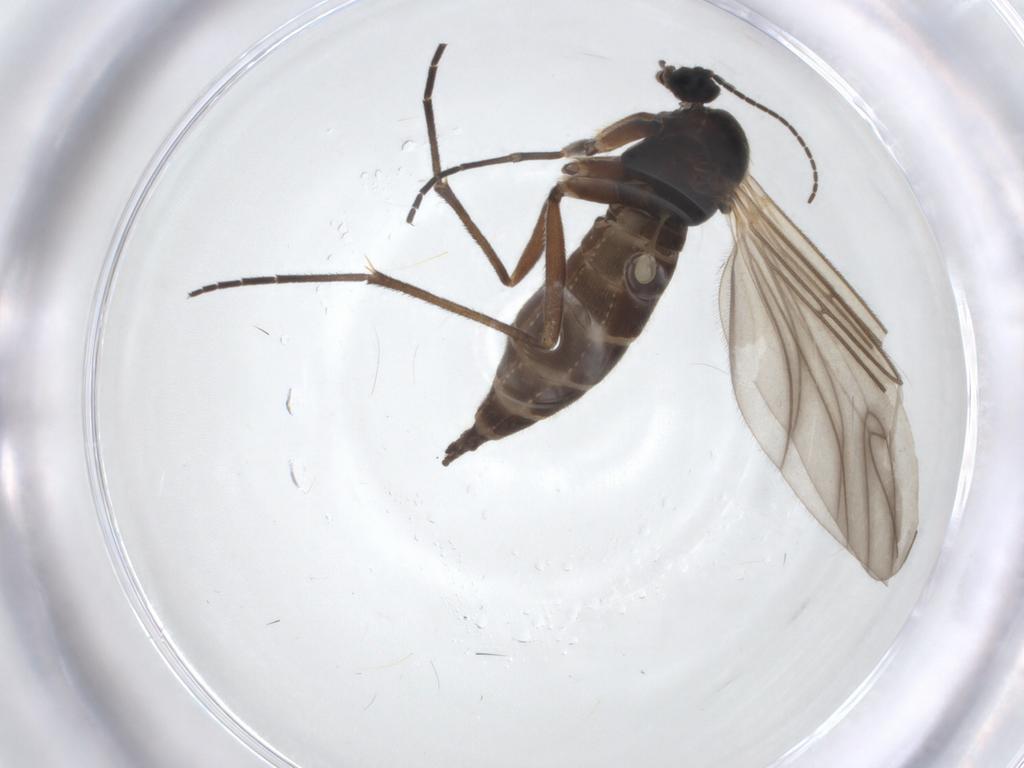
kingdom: Animalia
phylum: Arthropoda
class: Insecta
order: Diptera
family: Sciaridae
